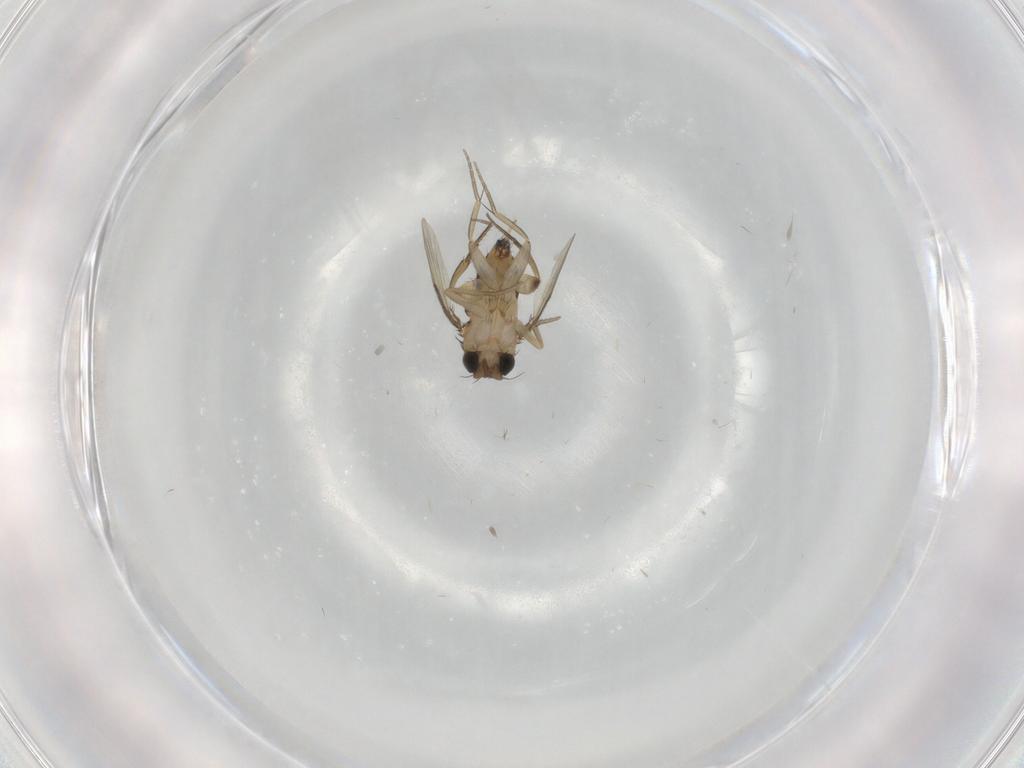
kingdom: Animalia
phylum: Arthropoda
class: Insecta
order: Diptera
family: Phoridae
